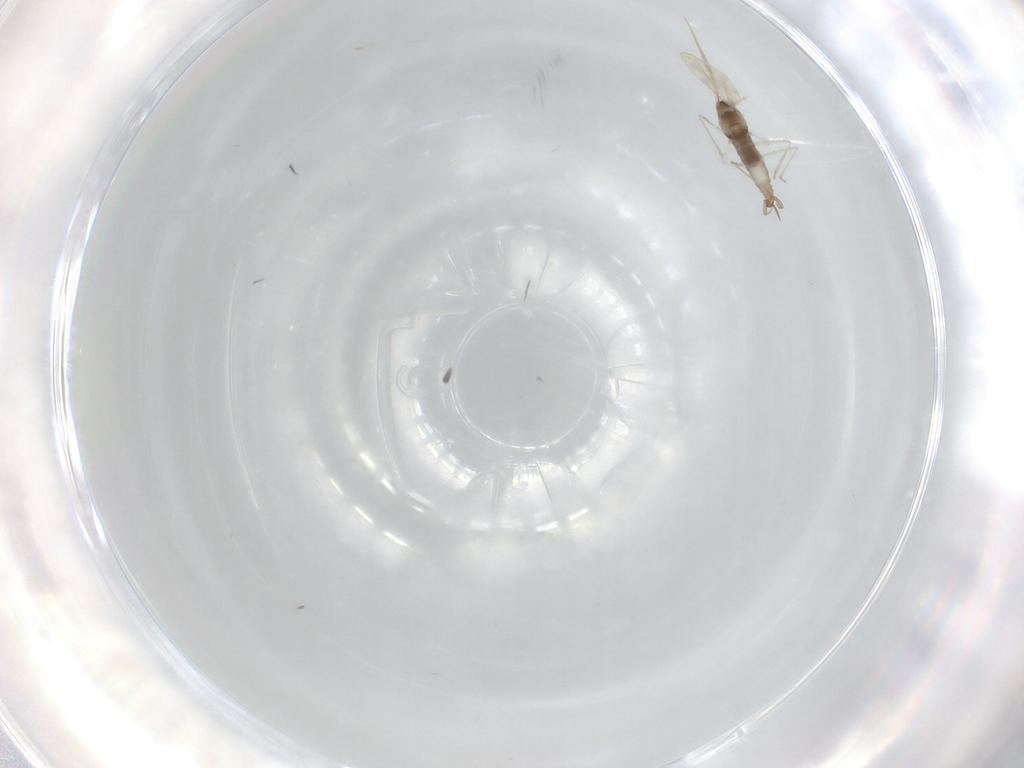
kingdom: Animalia
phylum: Arthropoda
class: Insecta
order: Diptera
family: Cecidomyiidae
